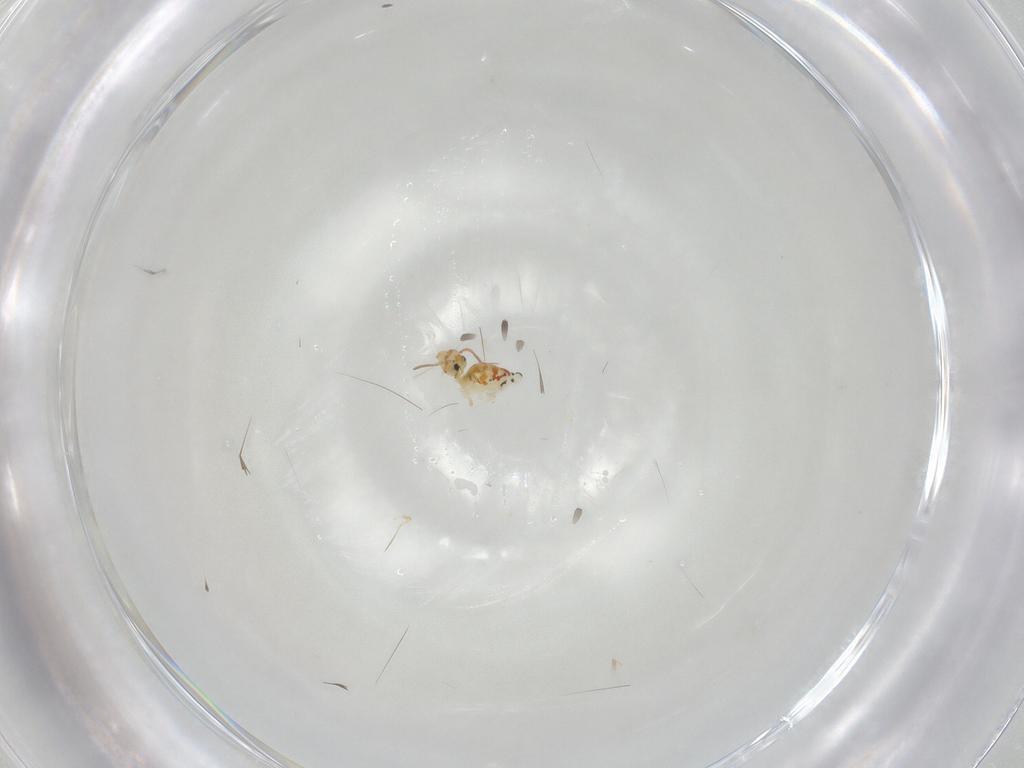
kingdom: Animalia
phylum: Arthropoda
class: Collembola
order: Symphypleona
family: Bourletiellidae
